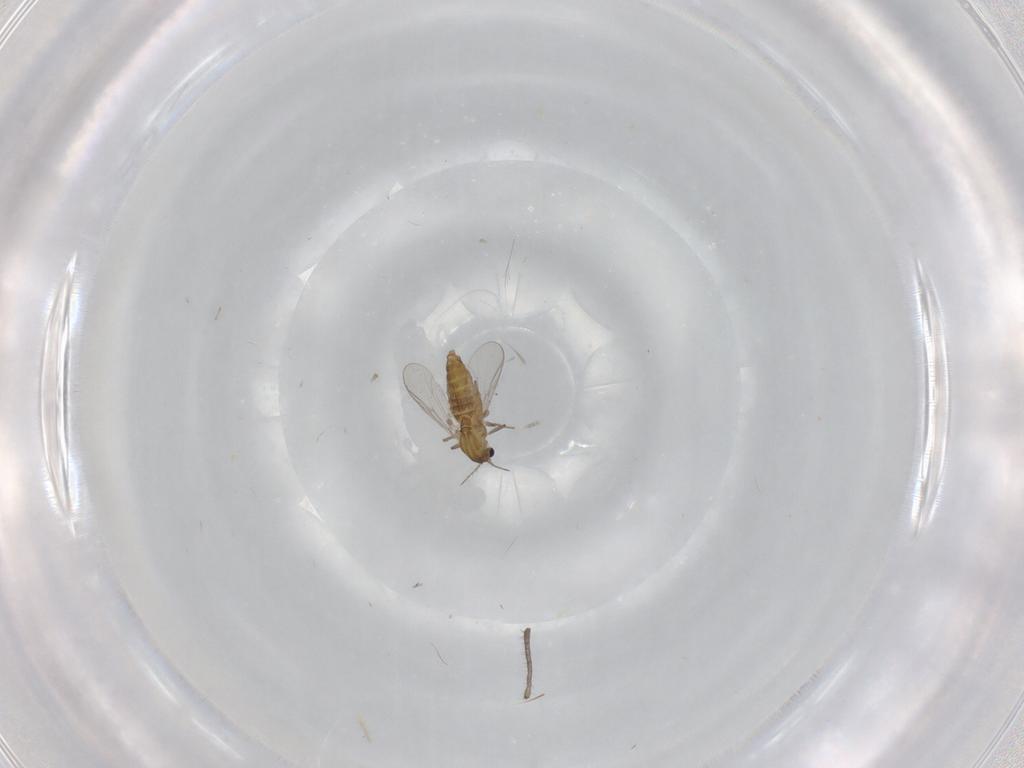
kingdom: Animalia
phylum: Arthropoda
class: Insecta
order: Diptera
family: Chironomidae
